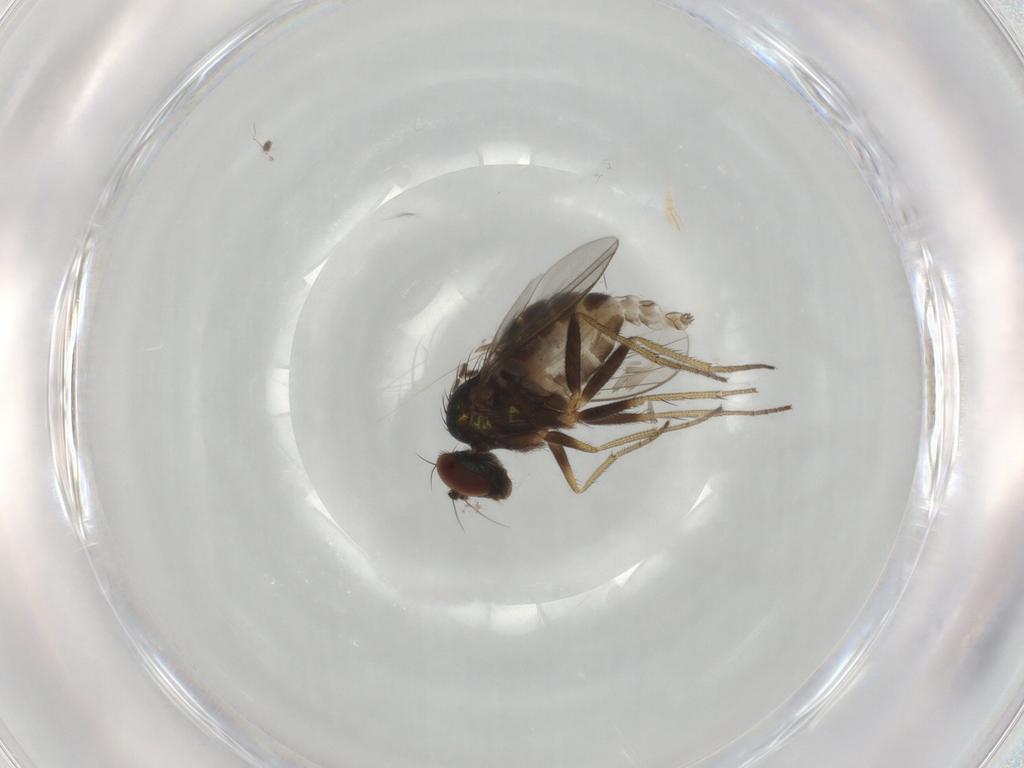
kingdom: Animalia
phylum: Arthropoda
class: Insecta
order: Diptera
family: Dolichopodidae
